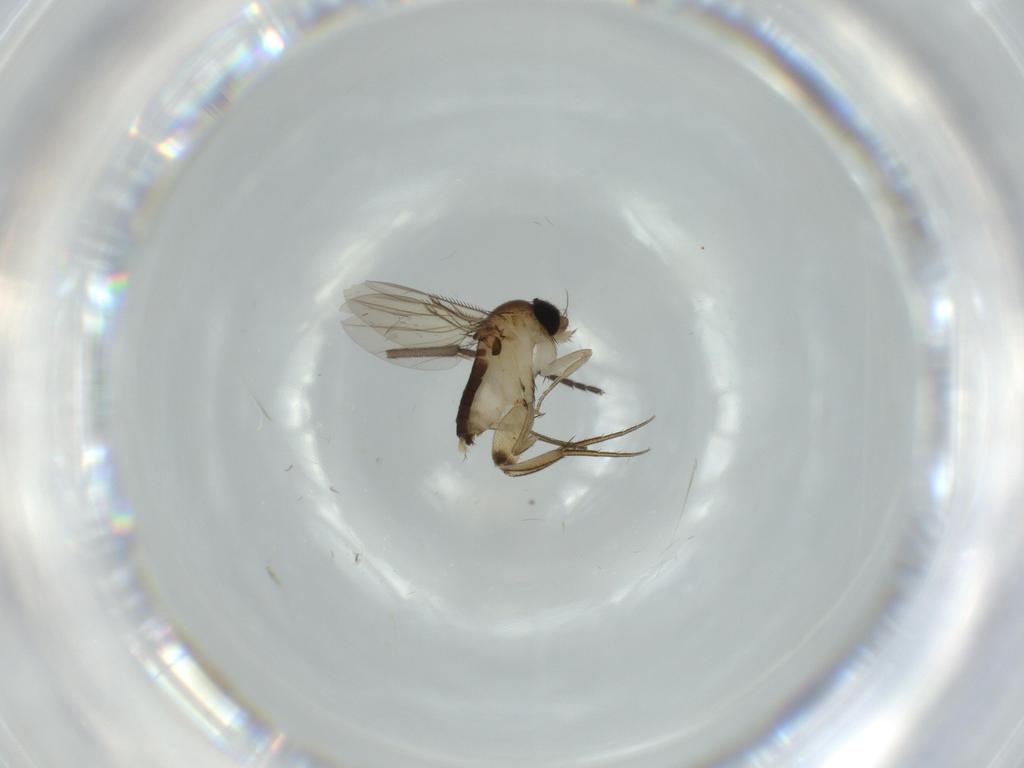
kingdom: Animalia
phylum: Arthropoda
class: Insecta
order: Diptera
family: Phoridae
